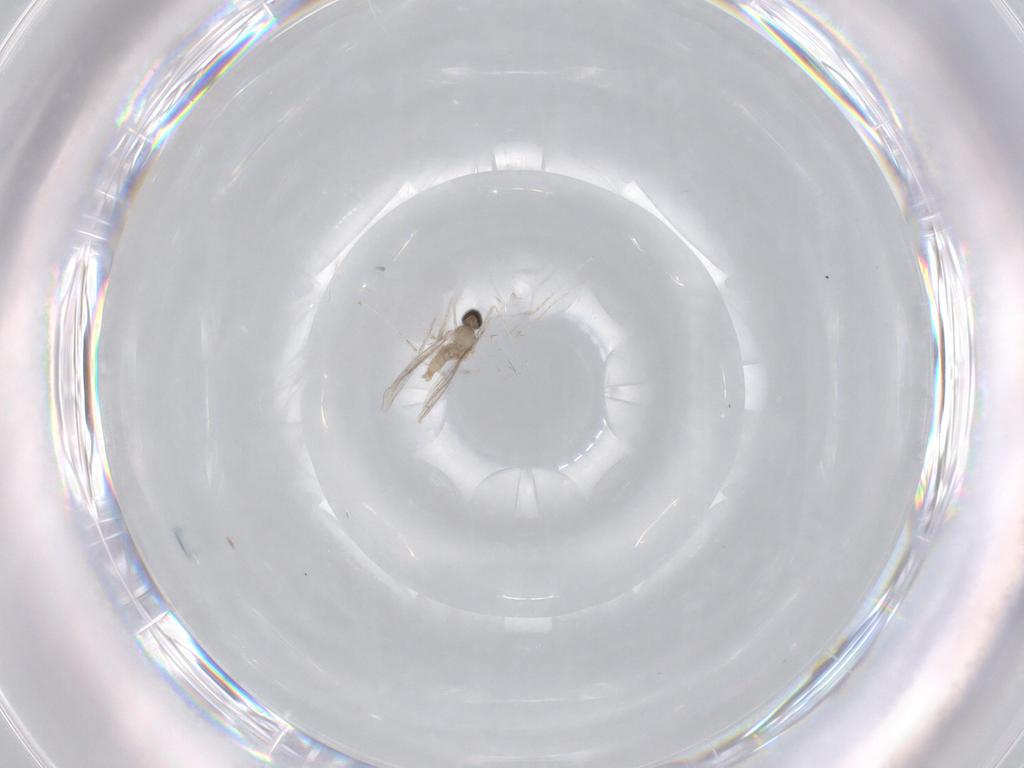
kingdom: Animalia
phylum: Arthropoda
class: Insecta
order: Diptera
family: Cecidomyiidae
